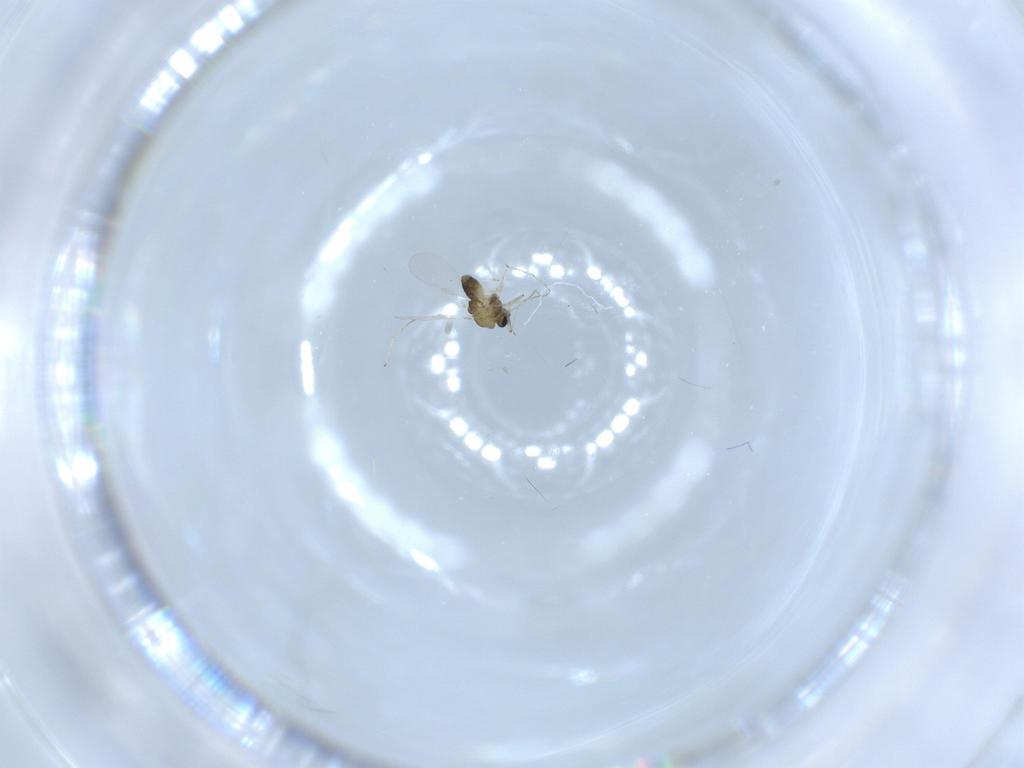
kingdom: Animalia
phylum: Arthropoda
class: Insecta
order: Diptera
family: Chironomidae
